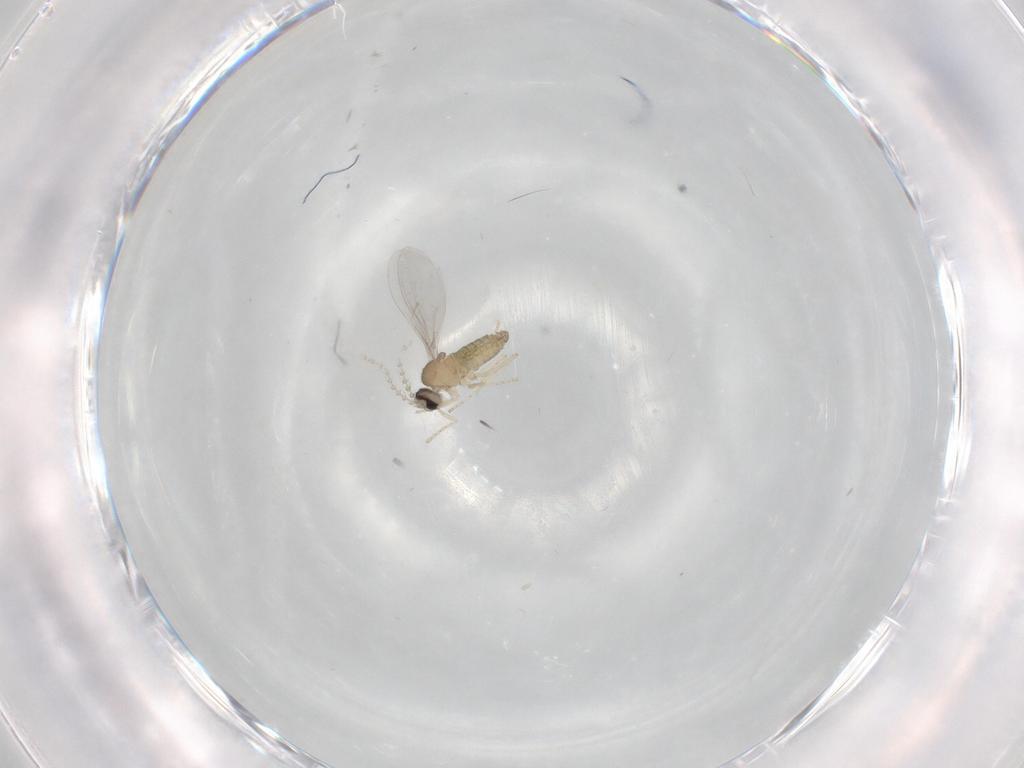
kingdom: Animalia
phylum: Arthropoda
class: Insecta
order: Diptera
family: Cecidomyiidae
